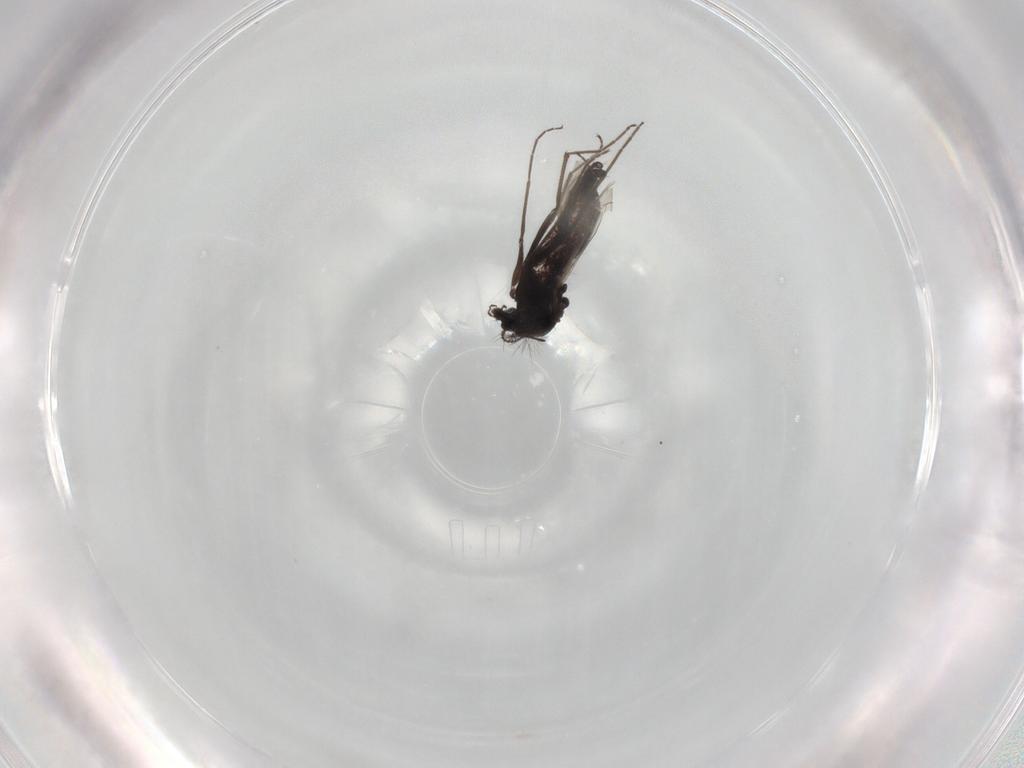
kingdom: Animalia
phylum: Arthropoda
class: Insecta
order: Diptera
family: Chironomidae
